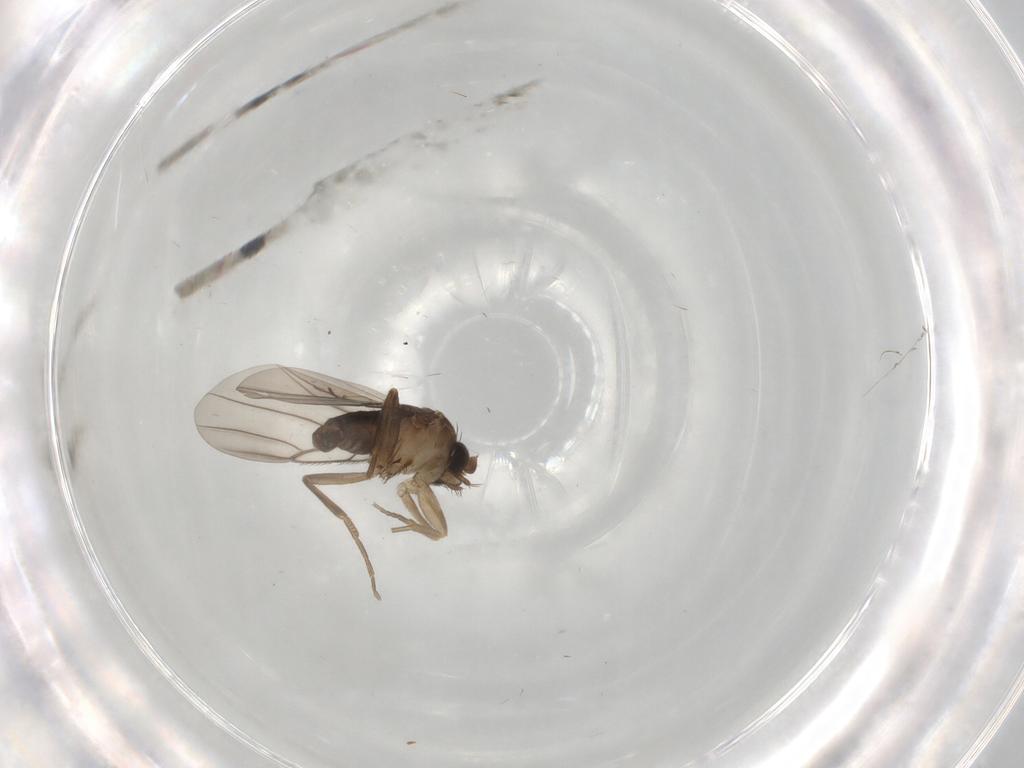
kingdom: Animalia
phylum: Arthropoda
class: Insecta
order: Diptera
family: Phoridae
